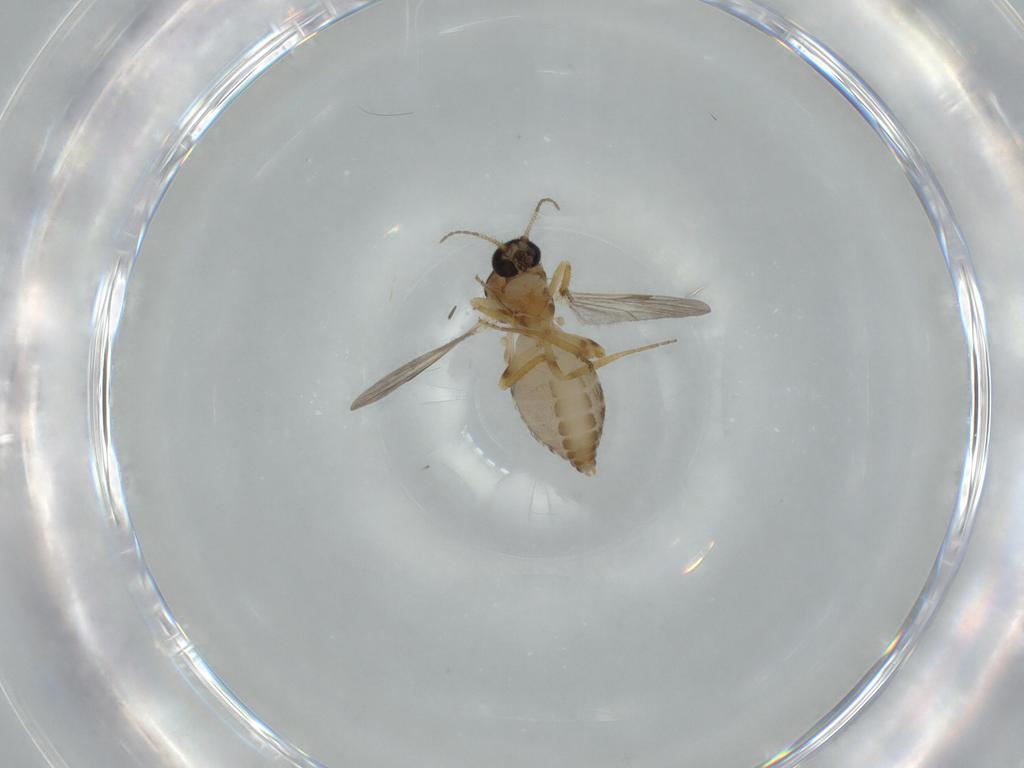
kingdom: Animalia
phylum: Arthropoda
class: Insecta
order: Diptera
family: Ceratopogonidae
